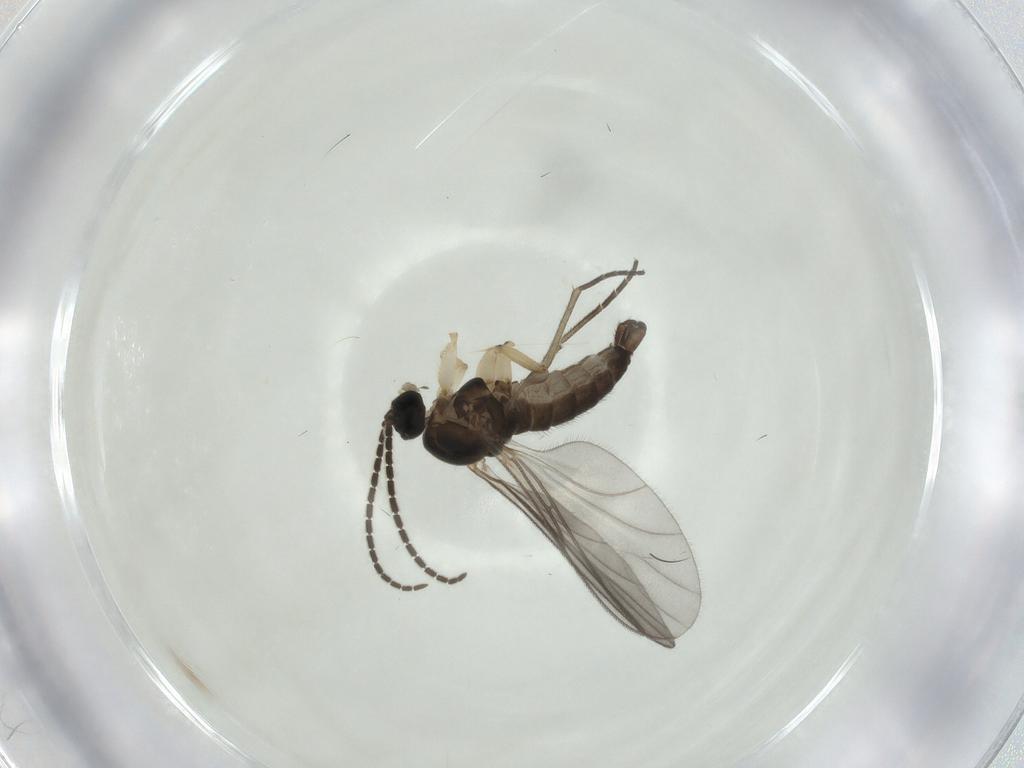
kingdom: Animalia
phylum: Arthropoda
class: Insecta
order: Diptera
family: Sciaridae
